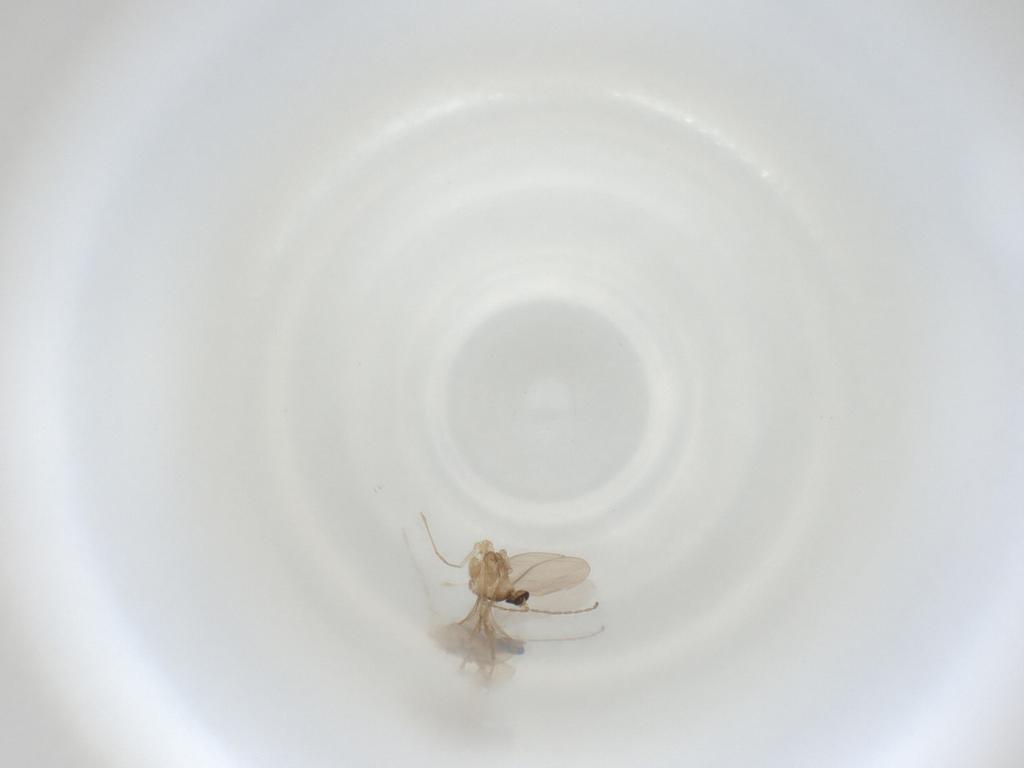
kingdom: Animalia
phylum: Arthropoda
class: Insecta
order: Diptera
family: Cecidomyiidae
